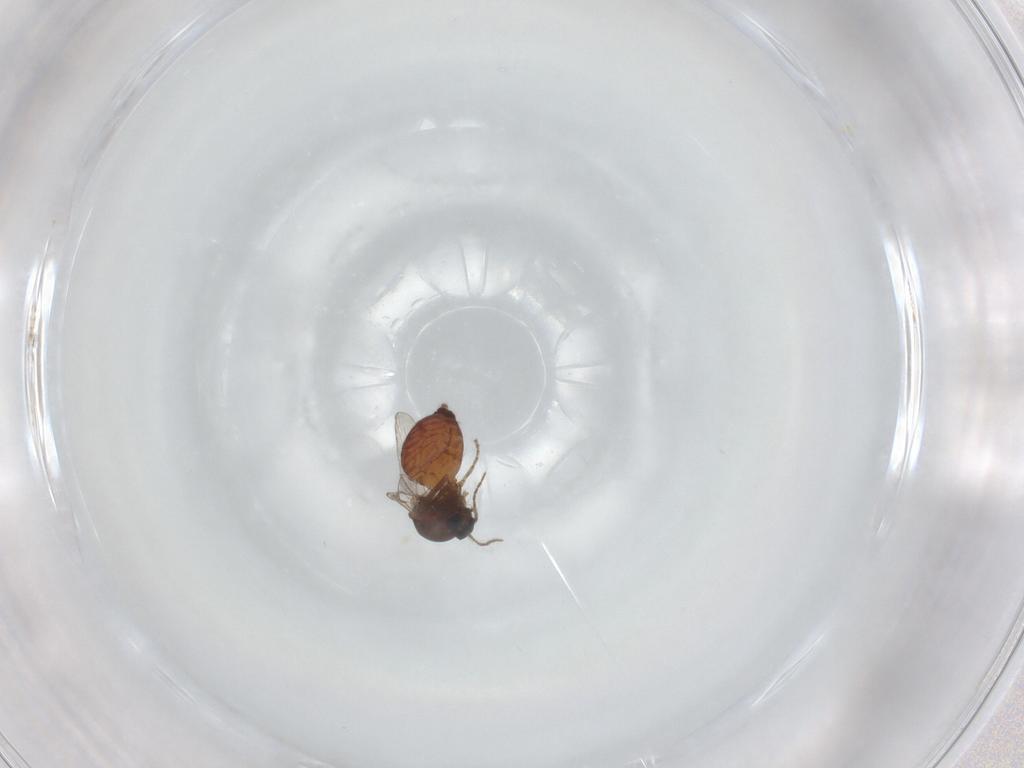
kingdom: Animalia
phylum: Arthropoda
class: Insecta
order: Diptera
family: Ceratopogonidae
